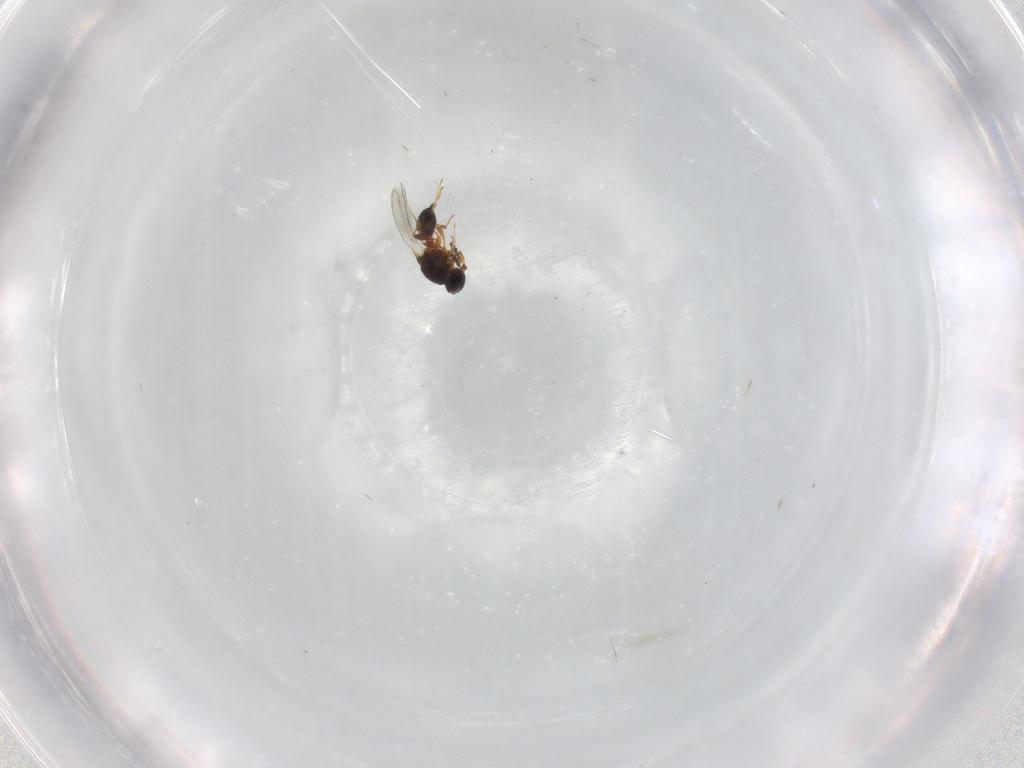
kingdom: Animalia
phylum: Arthropoda
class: Insecta
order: Hymenoptera
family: Platygastridae
